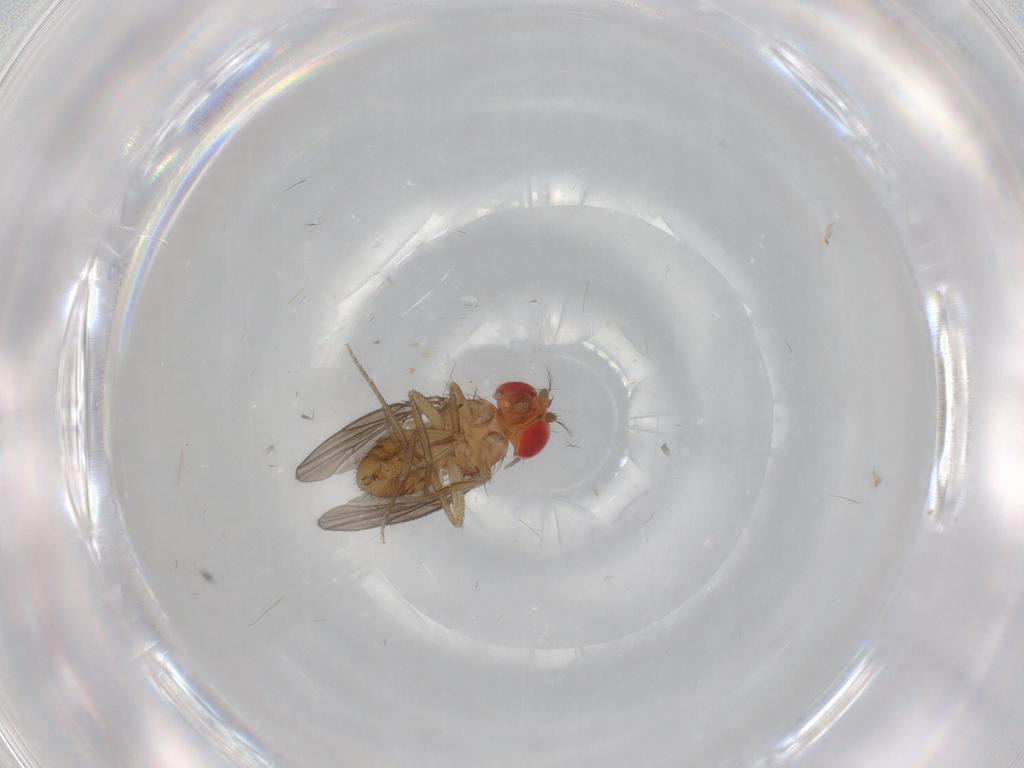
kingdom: Animalia
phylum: Arthropoda
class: Insecta
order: Diptera
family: Drosophilidae
